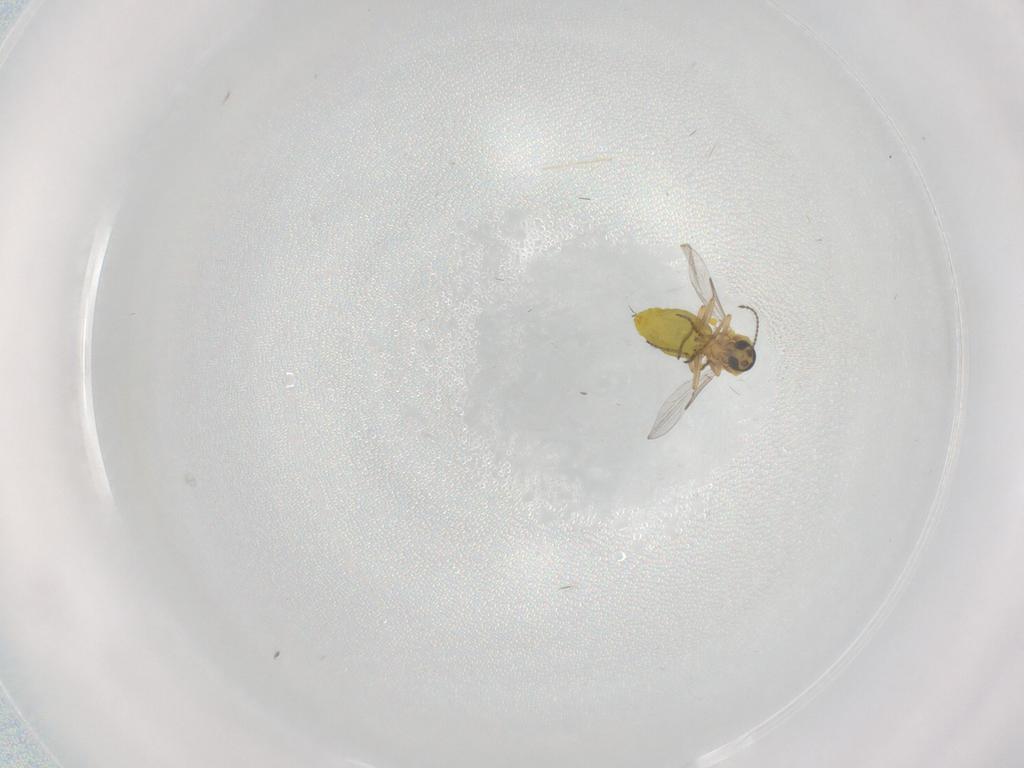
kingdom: Animalia
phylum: Arthropoda
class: Insecta
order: Diptera
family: Ceratopogonidae
